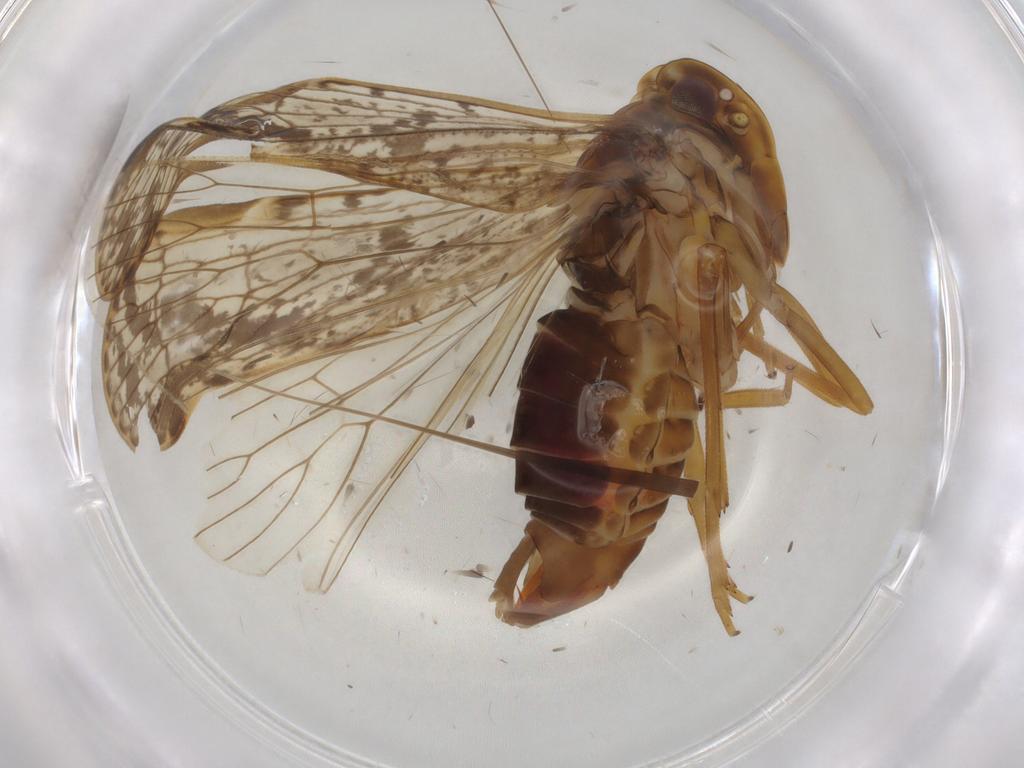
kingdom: Animalia
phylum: Arthropoda
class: Insecta
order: Hemiptera
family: Cixiidae
